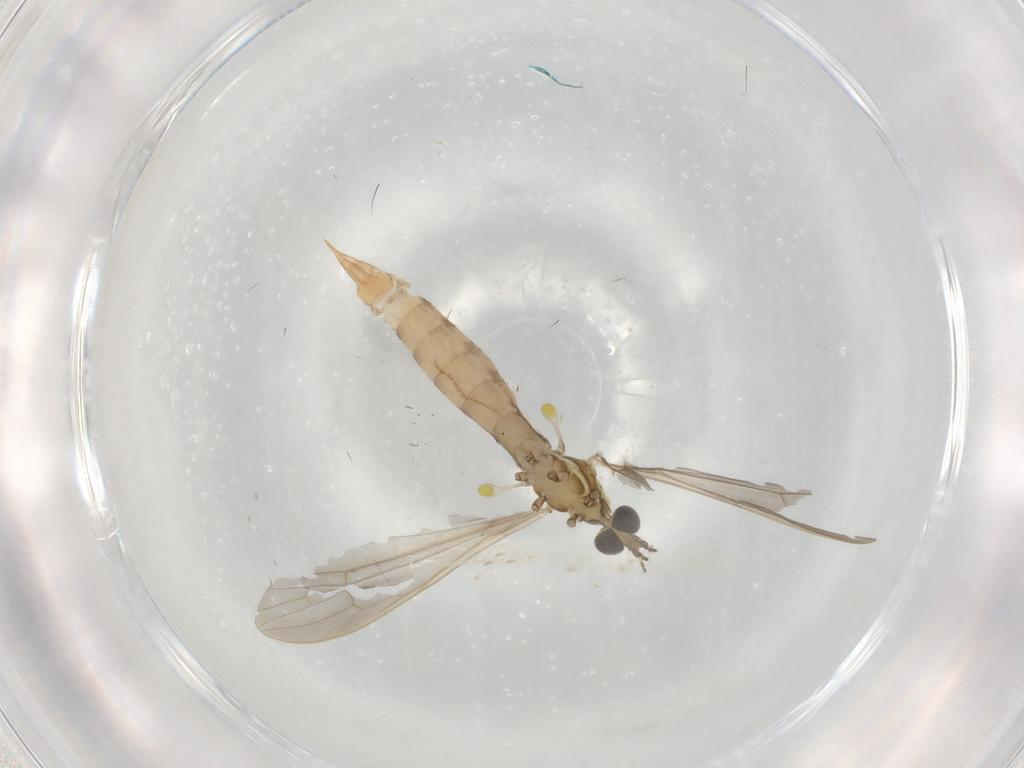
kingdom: Animalia
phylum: Arthropoda
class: Insecta
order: Diptera
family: Limoniidae
